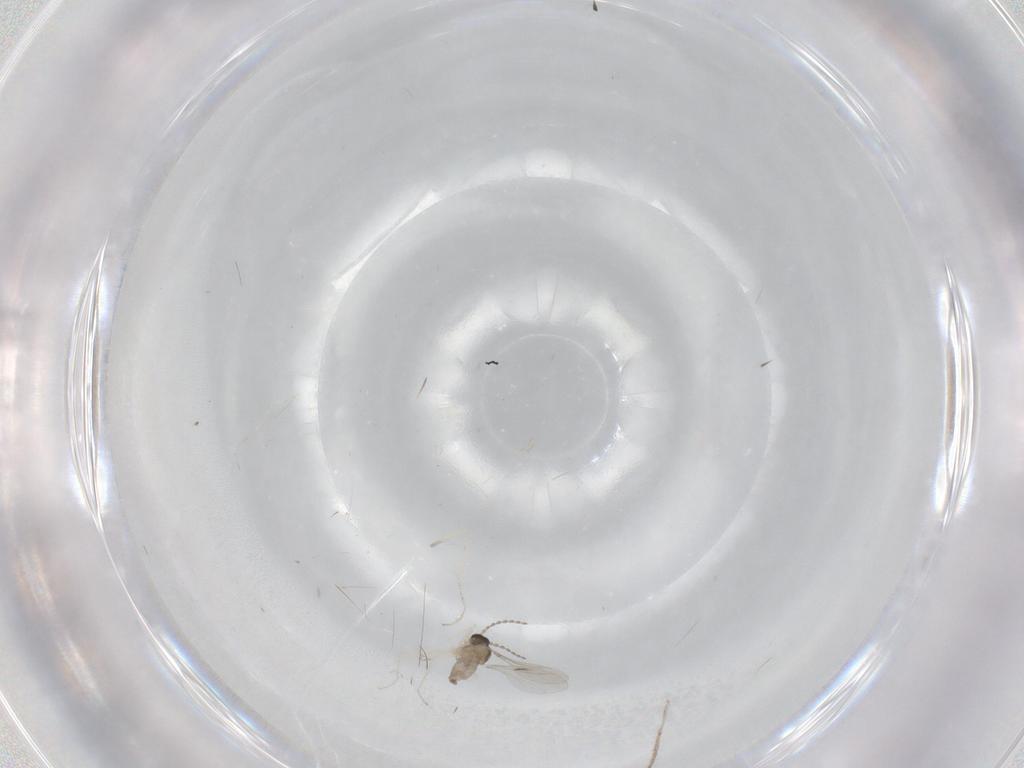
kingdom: Animalia
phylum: Arthropoda
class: Insecta
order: Diptera
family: Cecidomyiidae
